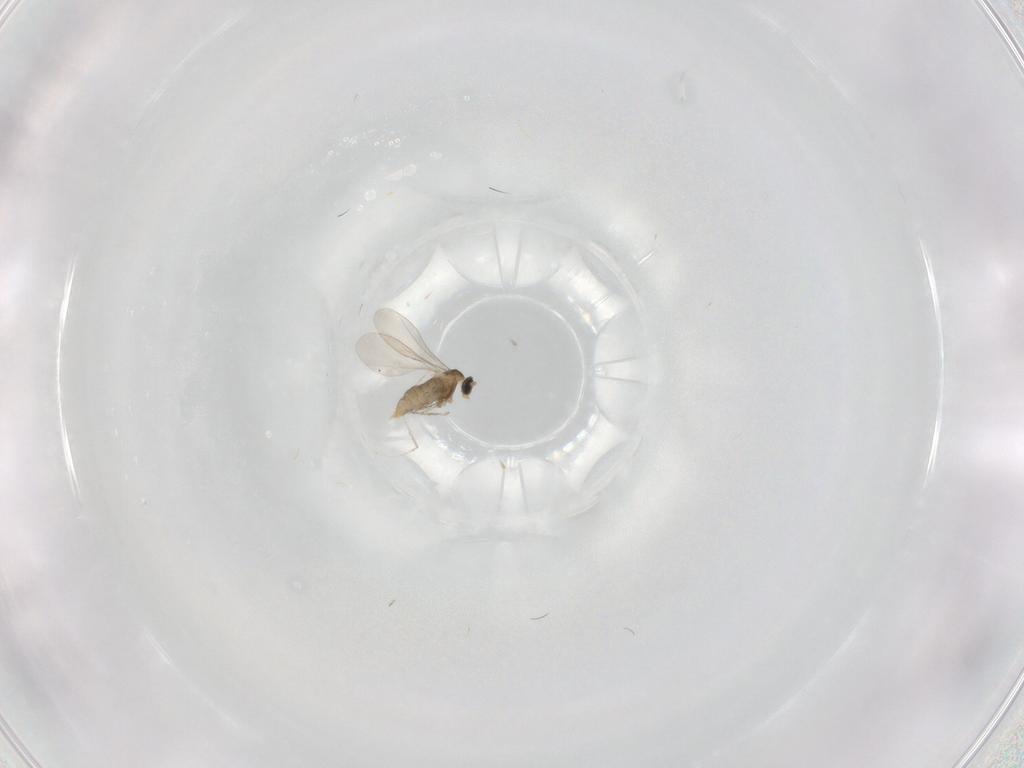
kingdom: Animalia
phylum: Arthropoda
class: Insecta
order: Diptera
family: Cecidomyiidae
